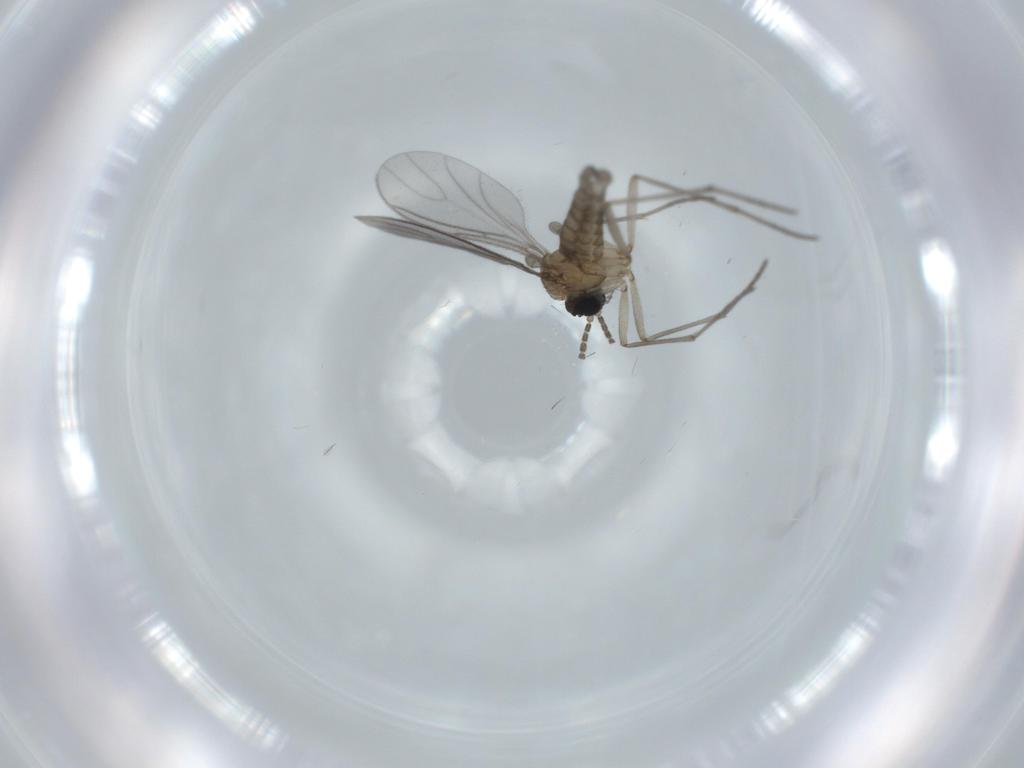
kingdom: Animalia
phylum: Arthropoda
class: Insecta
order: Diptera
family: Sciaridae
